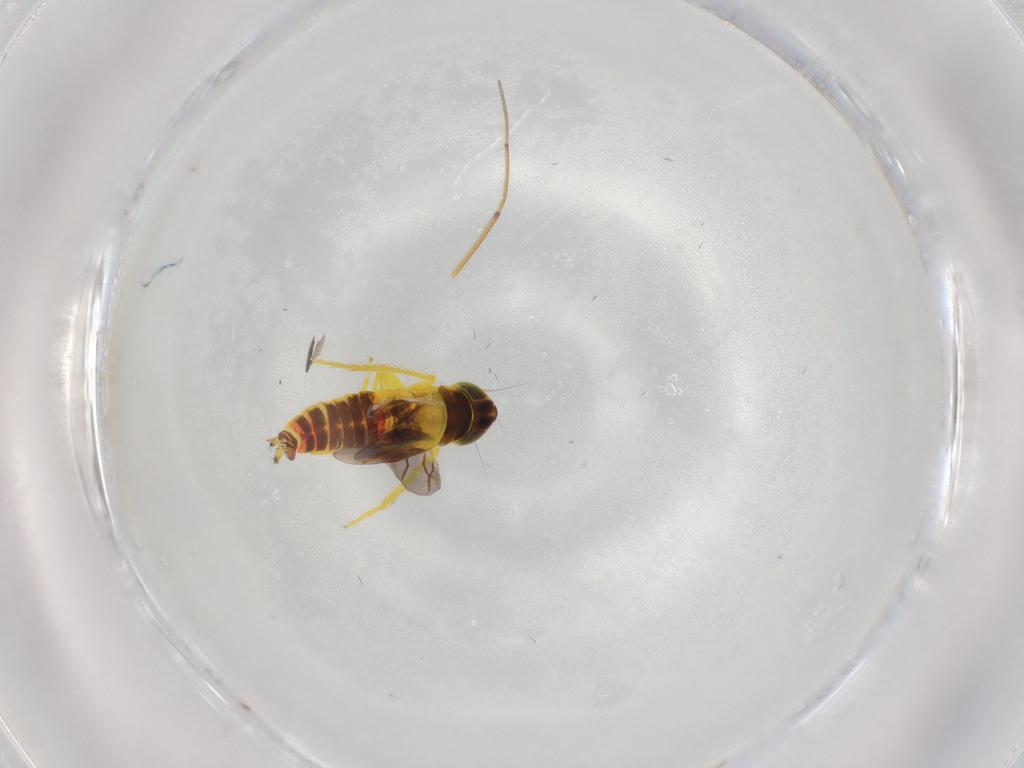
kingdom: Animalia
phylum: Arthropoda
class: Insecta
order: Hemiptera
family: Cicadellidae
